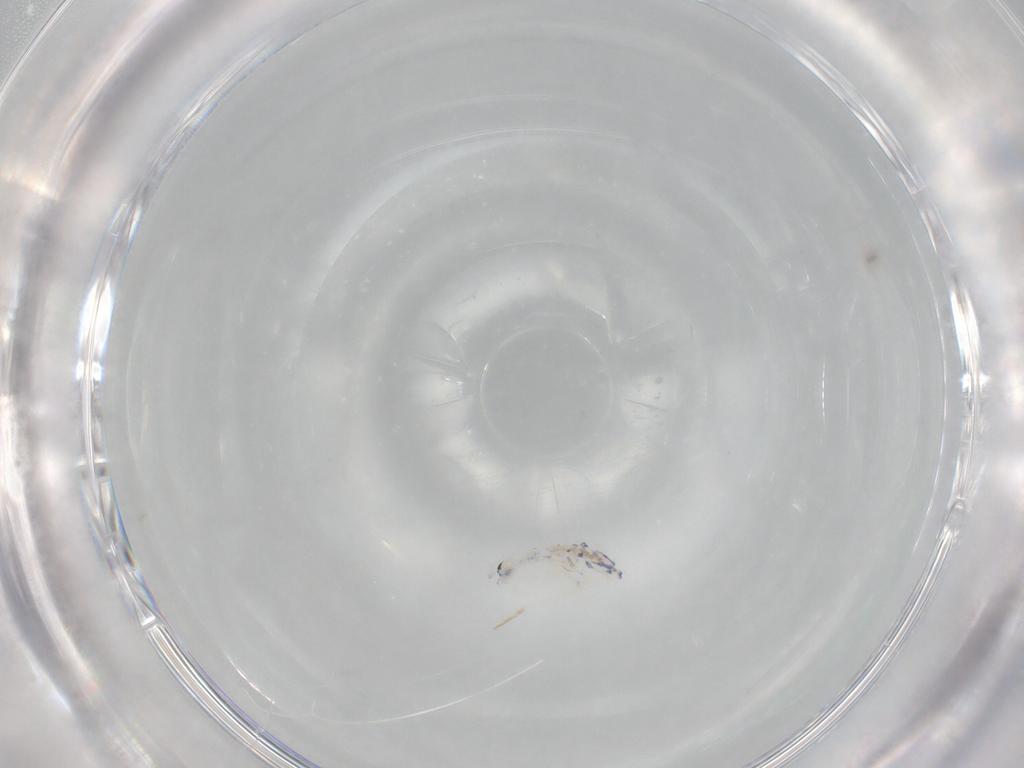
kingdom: Animalia
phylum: Arthropoda
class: Collembola
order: Entomobryomorpha
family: Entomobryidae
